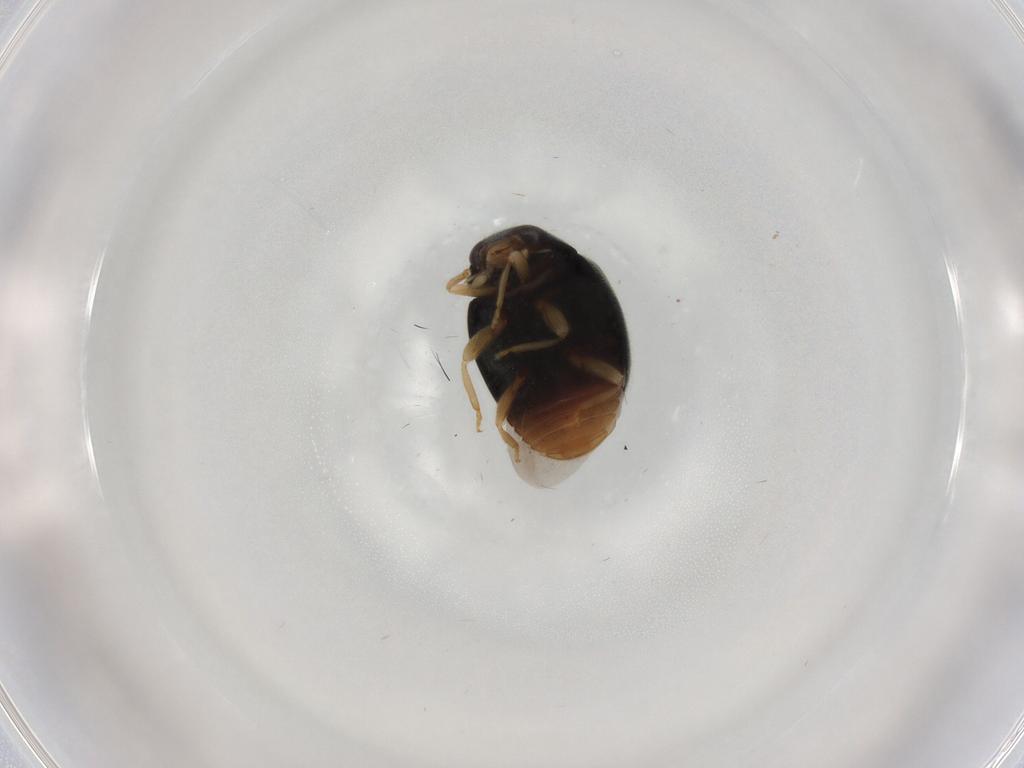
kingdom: Animalia
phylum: Arthropoda
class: Insecta
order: Coleoptera
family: Coccinellidae
